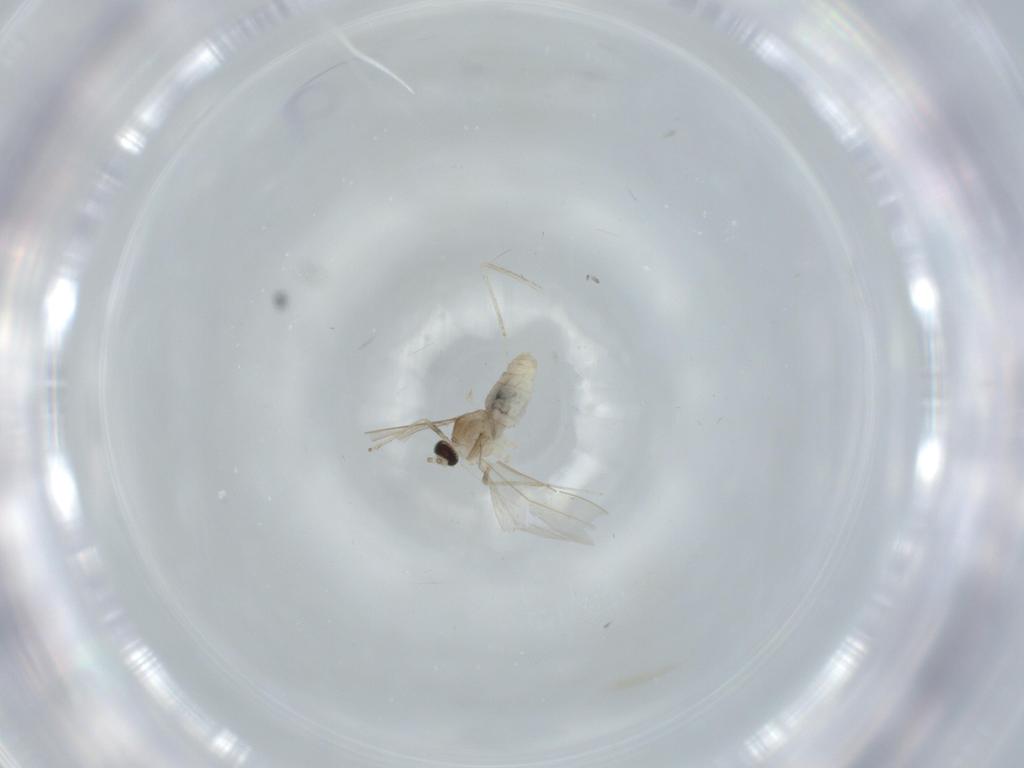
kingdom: Animalia
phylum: Arthropoda
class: Insecta
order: Diptera
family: Cecidomyiidae
